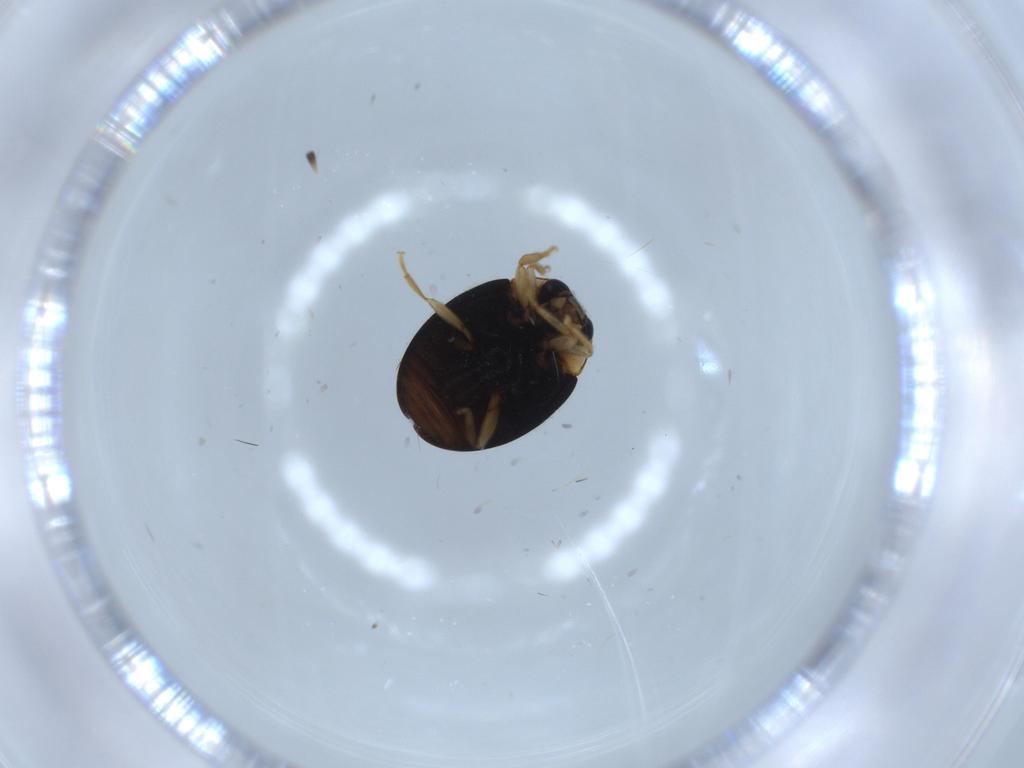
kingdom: Animalia
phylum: Arthropoda
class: Insecta
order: Coleoptera
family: Coccinellidae
